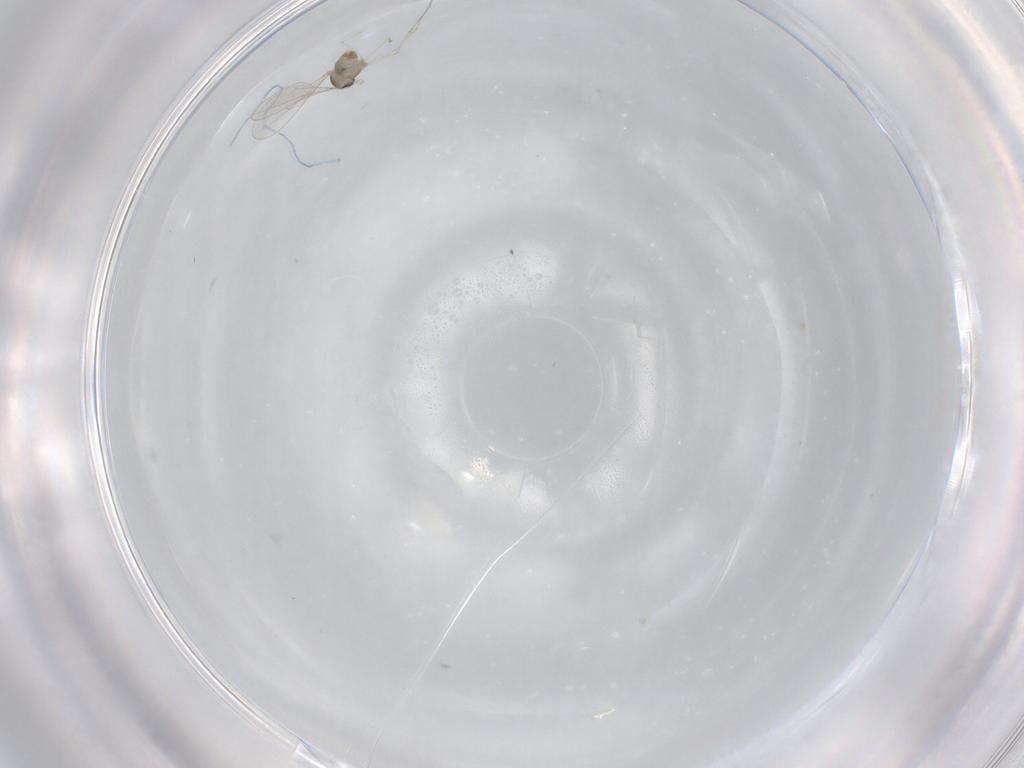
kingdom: Animalia
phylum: Arthropoda
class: Insecta
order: Diptera
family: Cecidomyiidae
